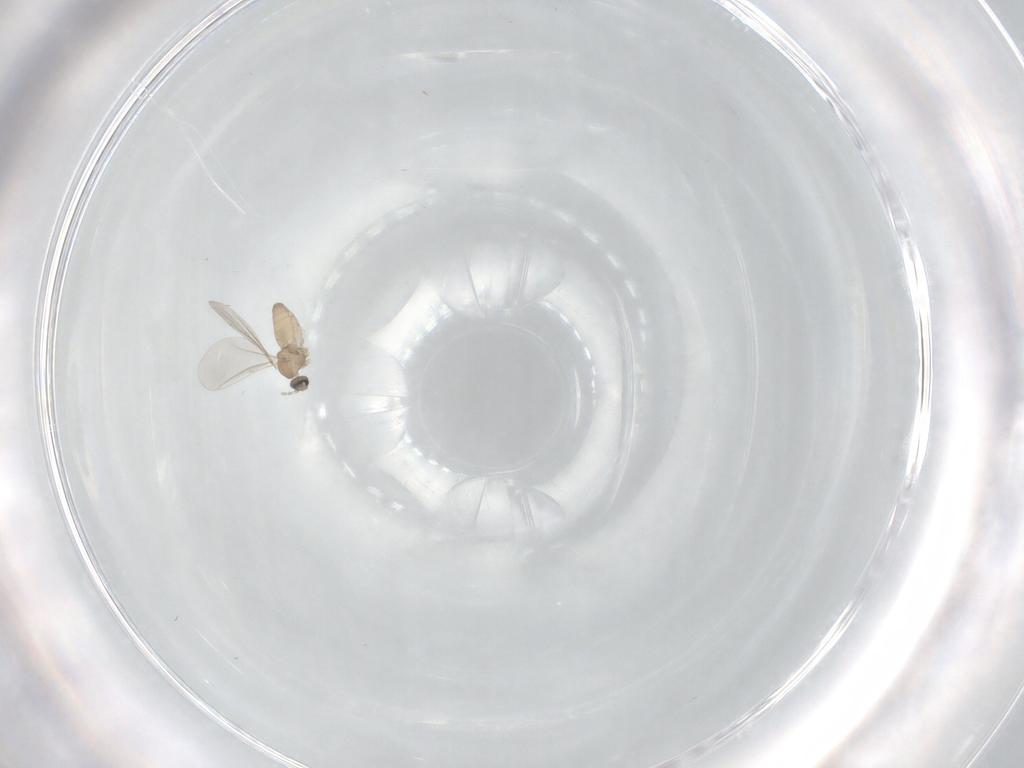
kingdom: Animalia
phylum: Arthropoda
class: Insecta
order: Diptera
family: Cecidomyiidae
